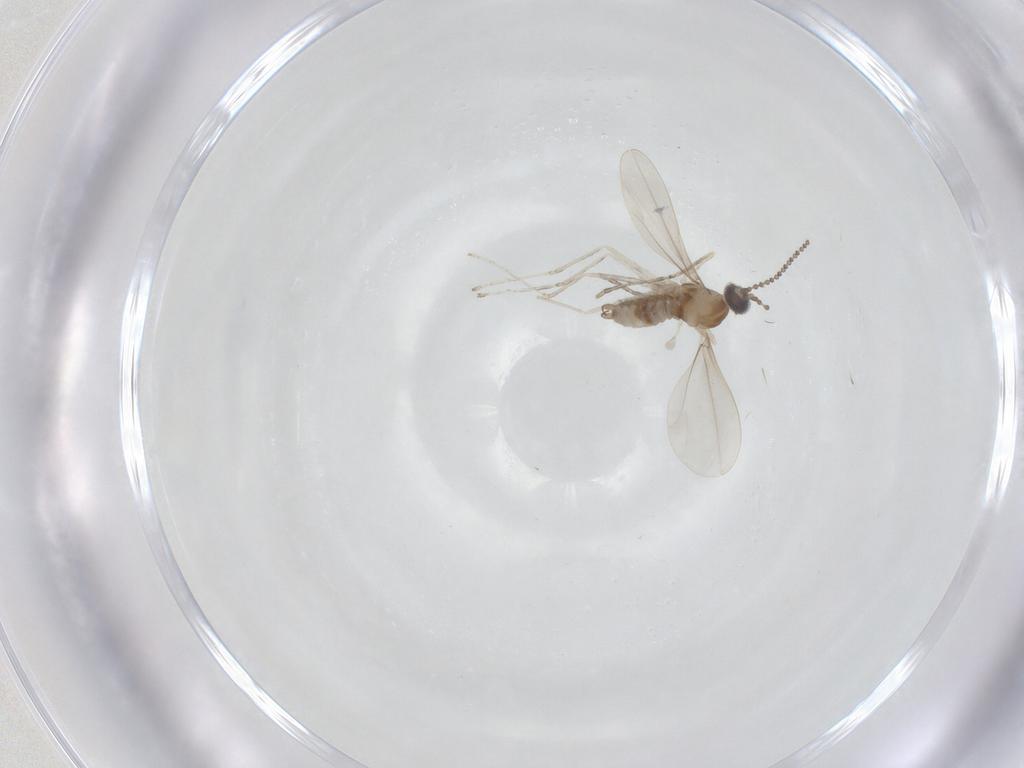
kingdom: Animalia
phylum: Arthropoda
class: Insecta
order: Diptera
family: Cecidomyiidae
